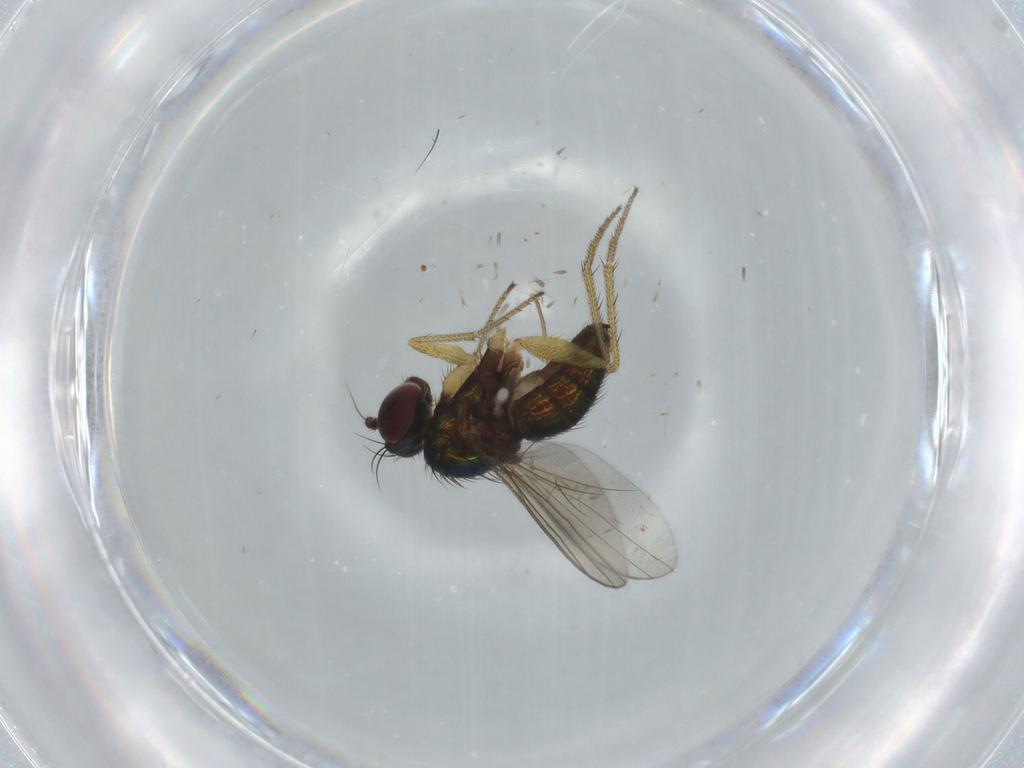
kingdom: Animalia
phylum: Arthropoda
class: Insecta
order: Diptera
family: Dolichopodidae
